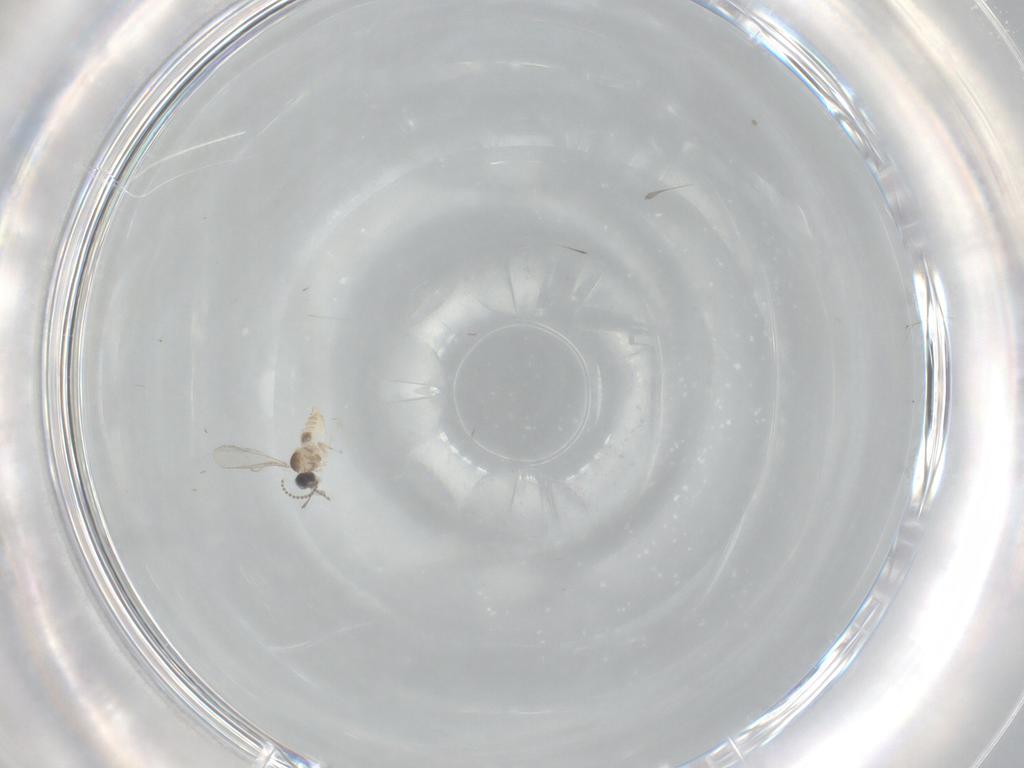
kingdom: Animalia
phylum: Arthropoda
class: Insecta
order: Diptera
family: Cecidomyiidae
